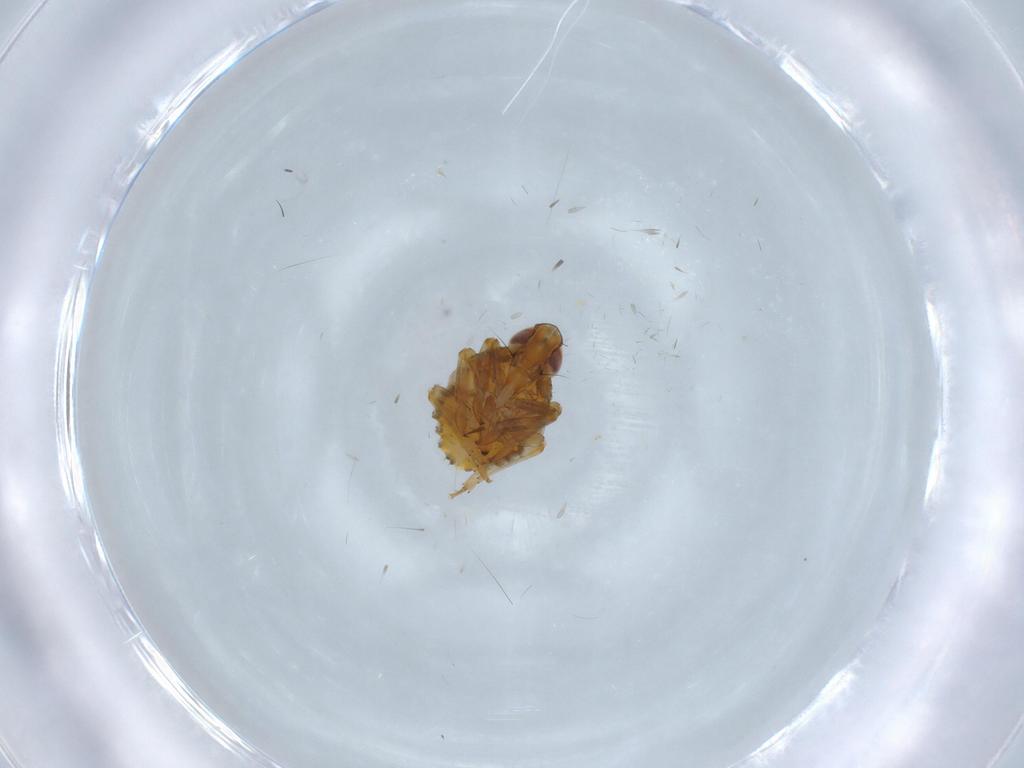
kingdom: Animalia
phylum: Arthropoda
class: Insecta
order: Hemiptera
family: Issidae
